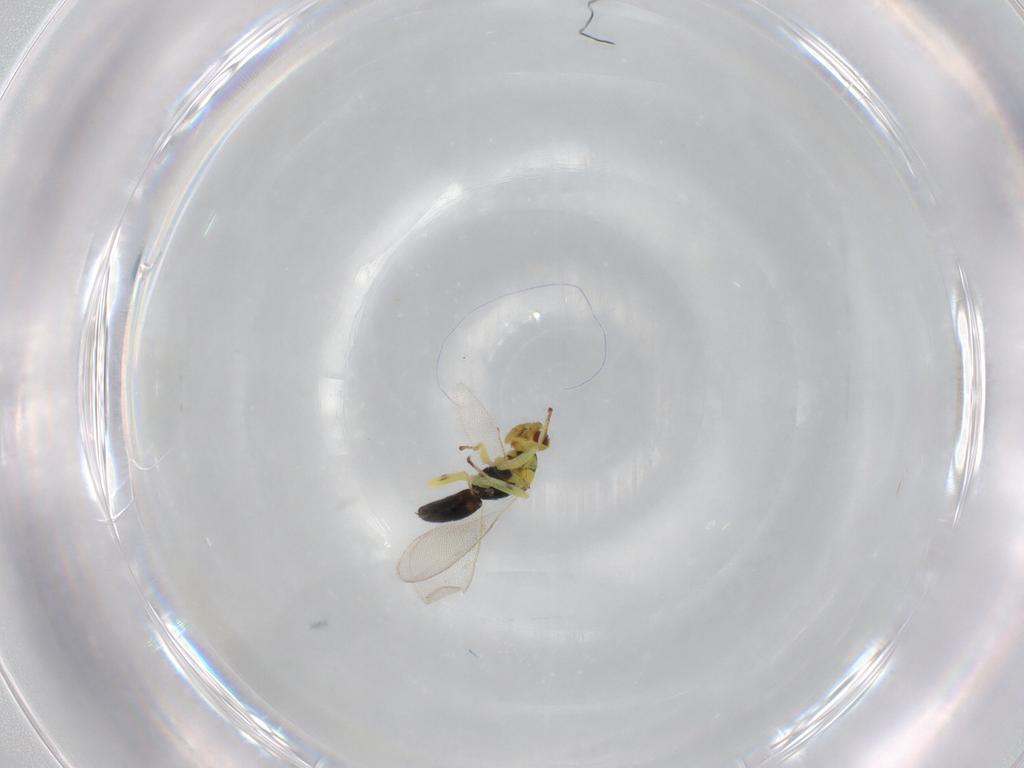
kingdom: Animalia
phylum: Arthropoda
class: Insecta
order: Hymenoptera
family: Eulophidae
